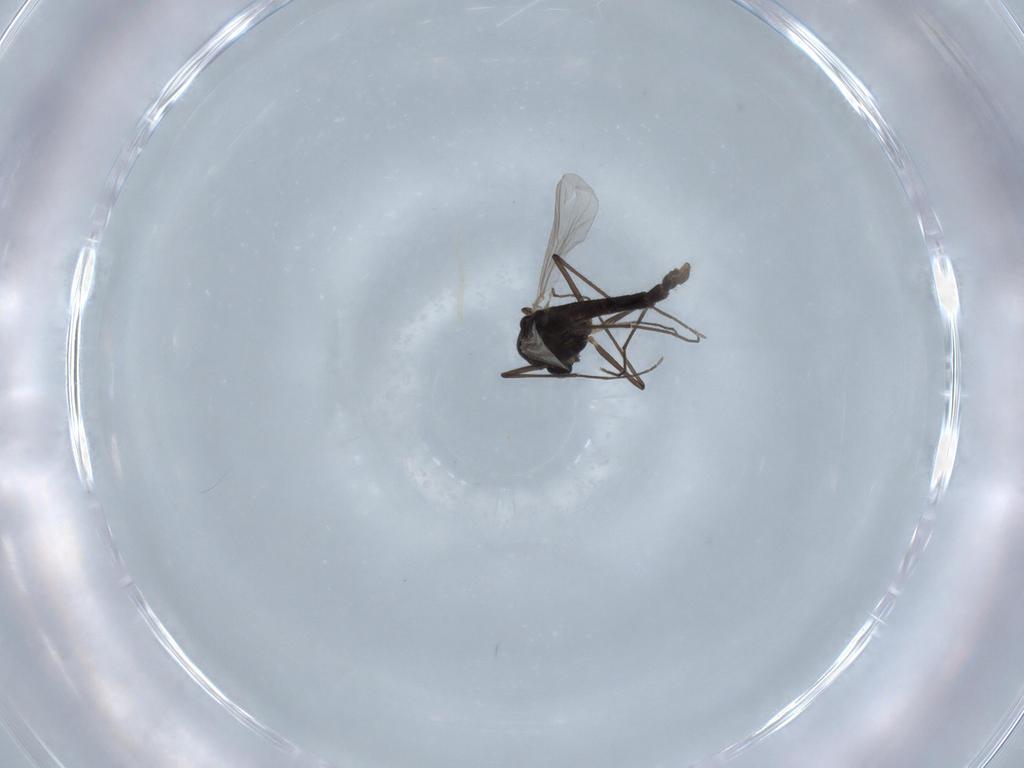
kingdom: Animalia
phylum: Arthropoda
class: Insecta
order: Diptera
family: Chironomidae
